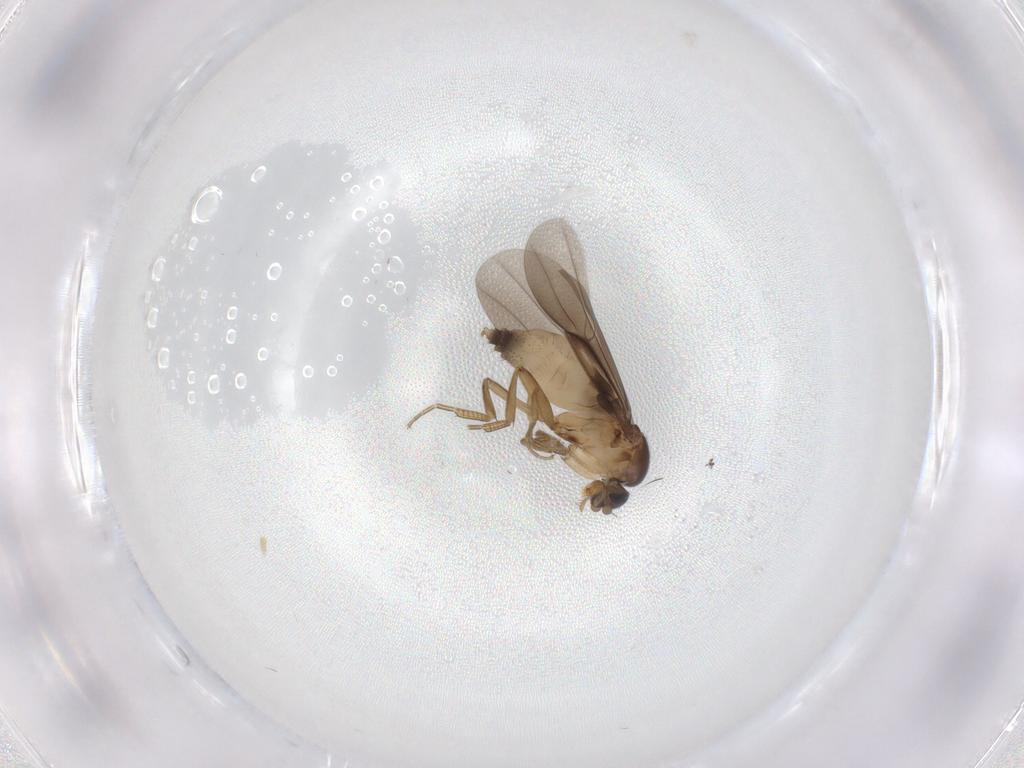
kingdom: Animalia
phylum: Arthropoda
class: Insecta
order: Diptera
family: Phoridae
